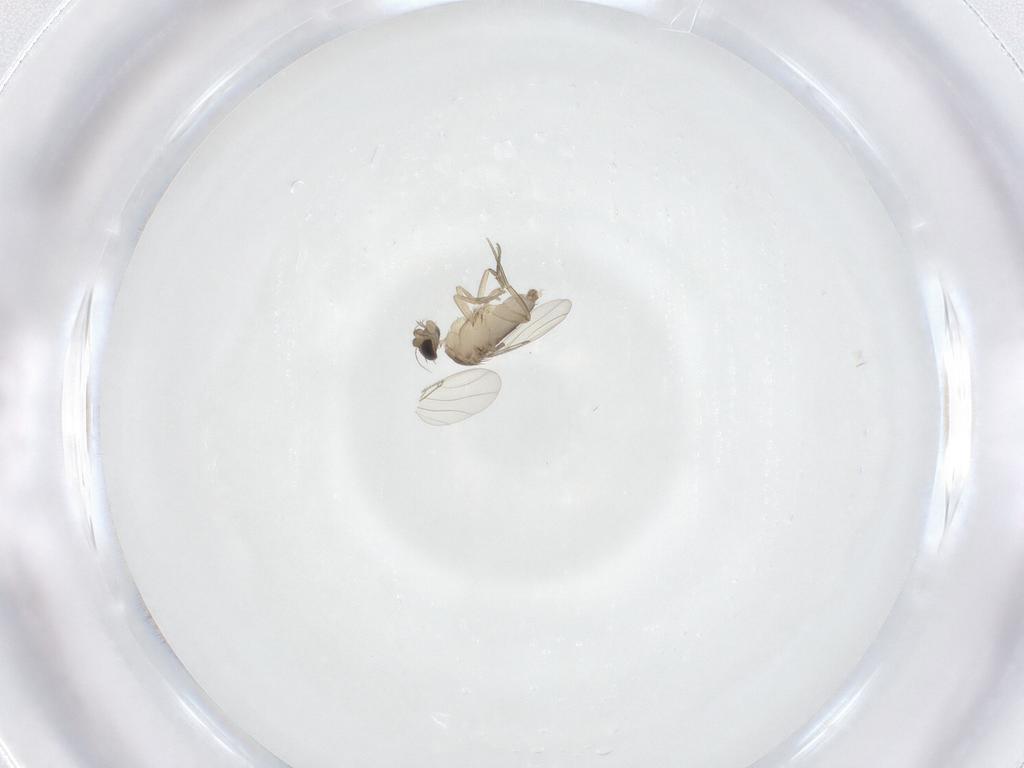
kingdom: Animalia
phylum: Arthropoda
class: Insecta
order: Diptera
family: Phoridae
